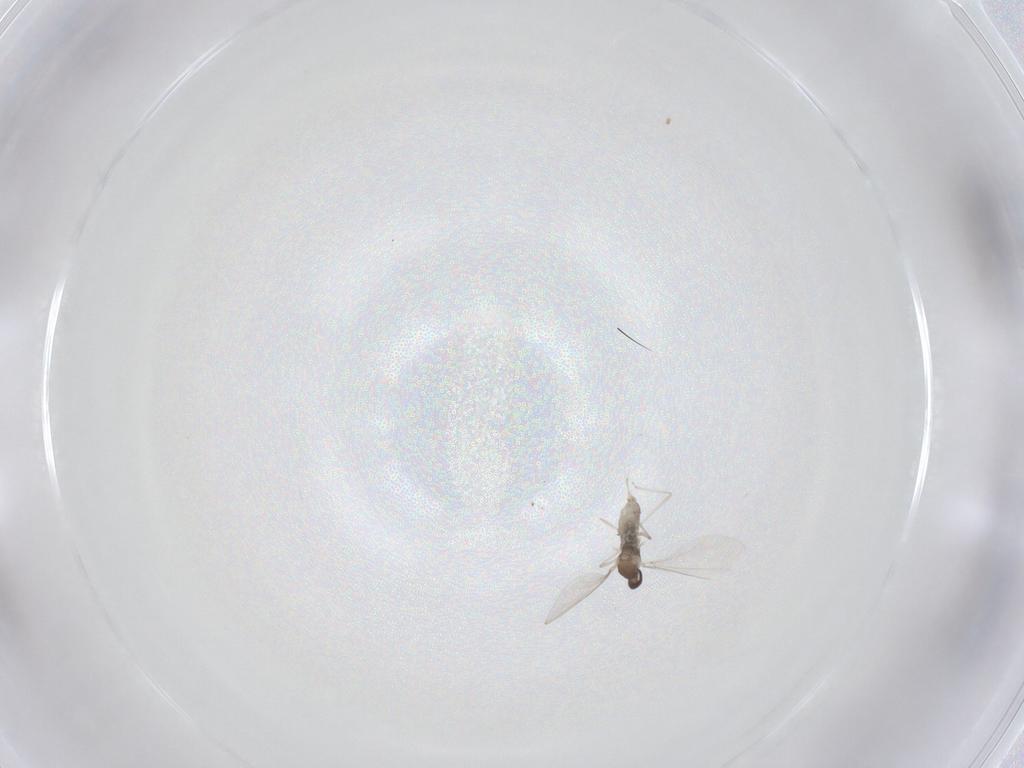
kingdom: Animalia
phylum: Arthropoda
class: Insecta
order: Diptera
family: Cecidomyiidae
